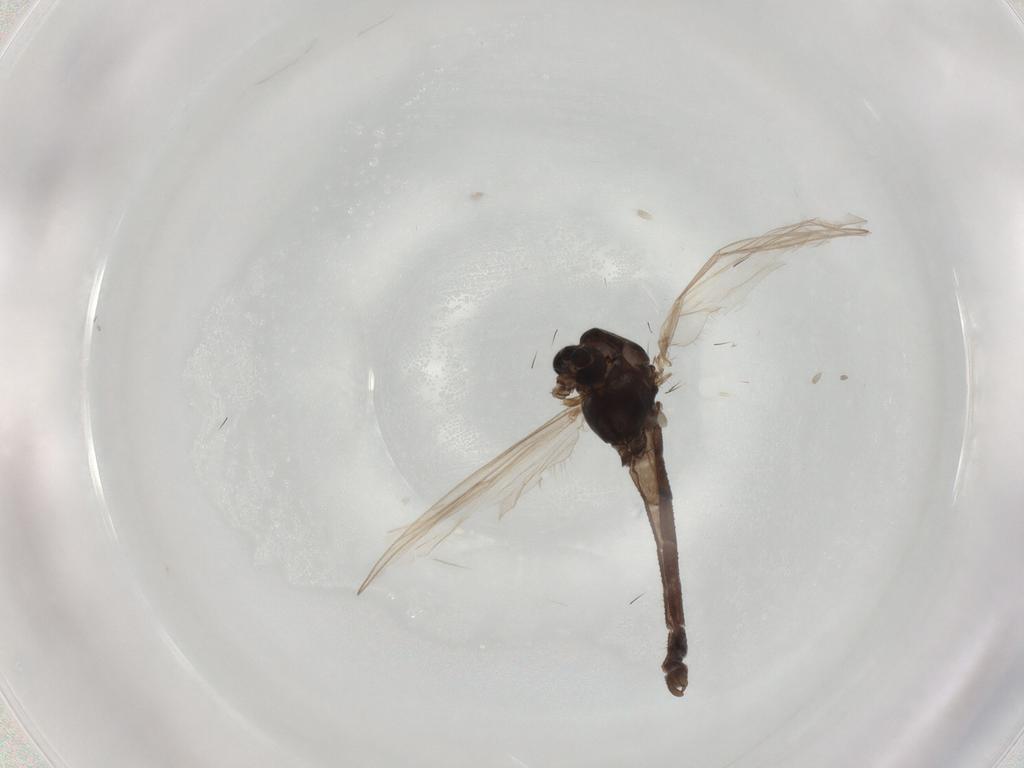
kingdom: Animalia
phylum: Arthropoda
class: Insecta
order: Diptera
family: Chironomidae
